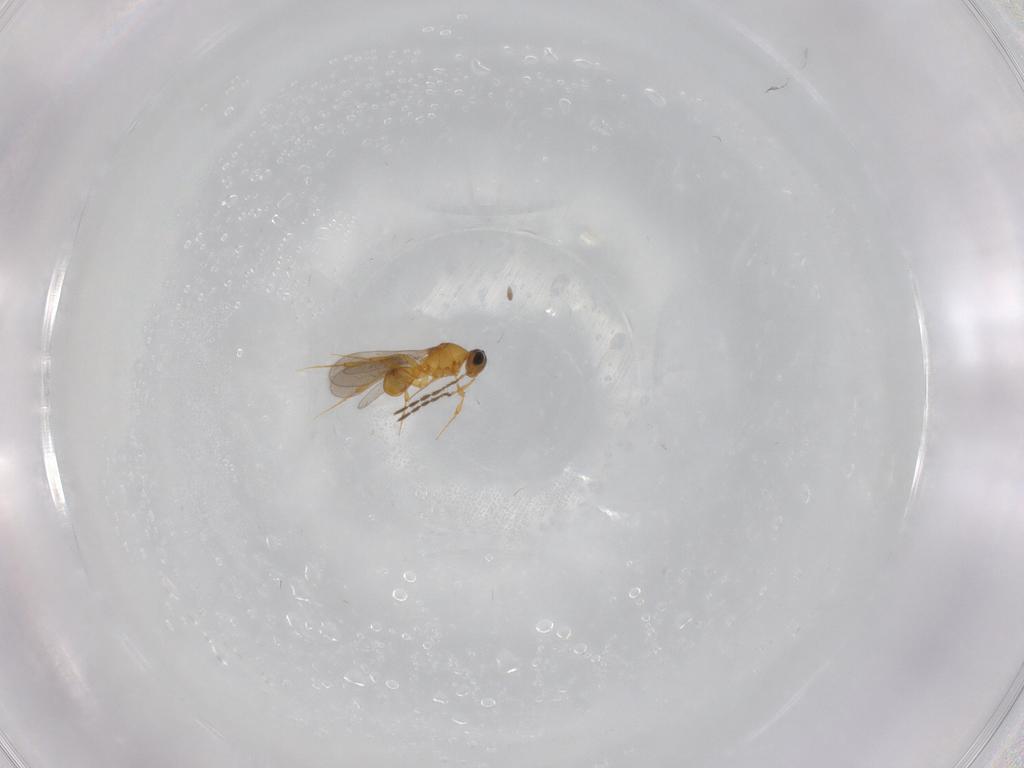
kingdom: Animalia
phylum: Arthropoda
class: Insecta
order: Hymenoptera
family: Platygastridae
